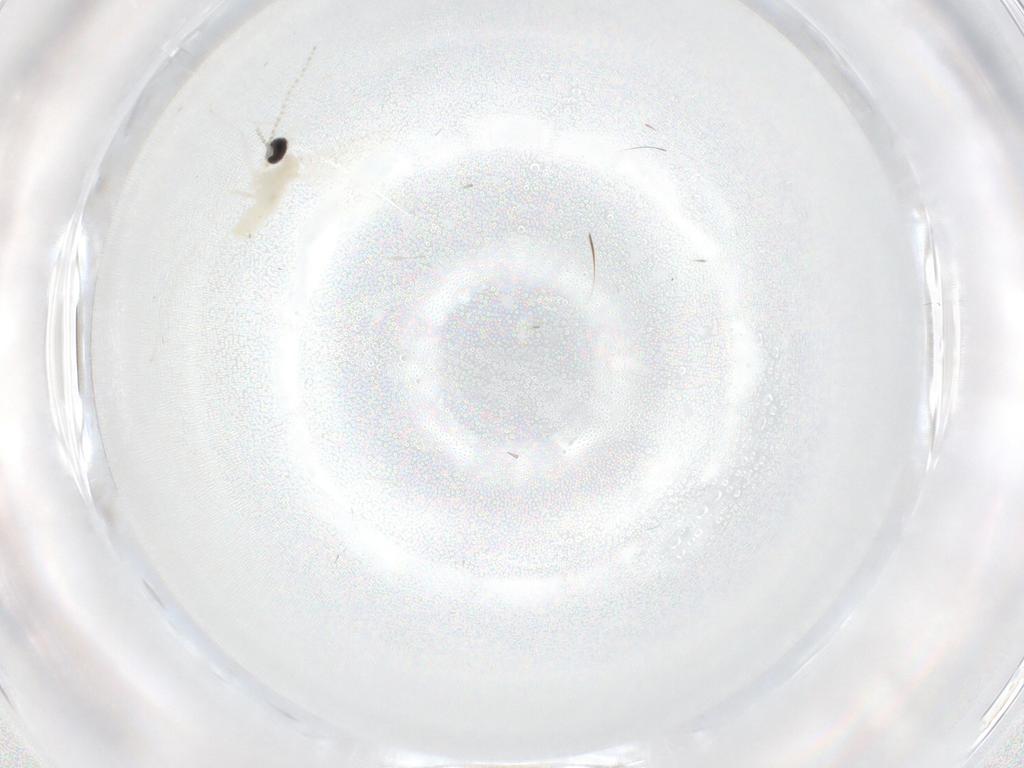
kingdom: Animalia
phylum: Arthropoda
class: Insecta
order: Diptera
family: Cecidomyiidae
